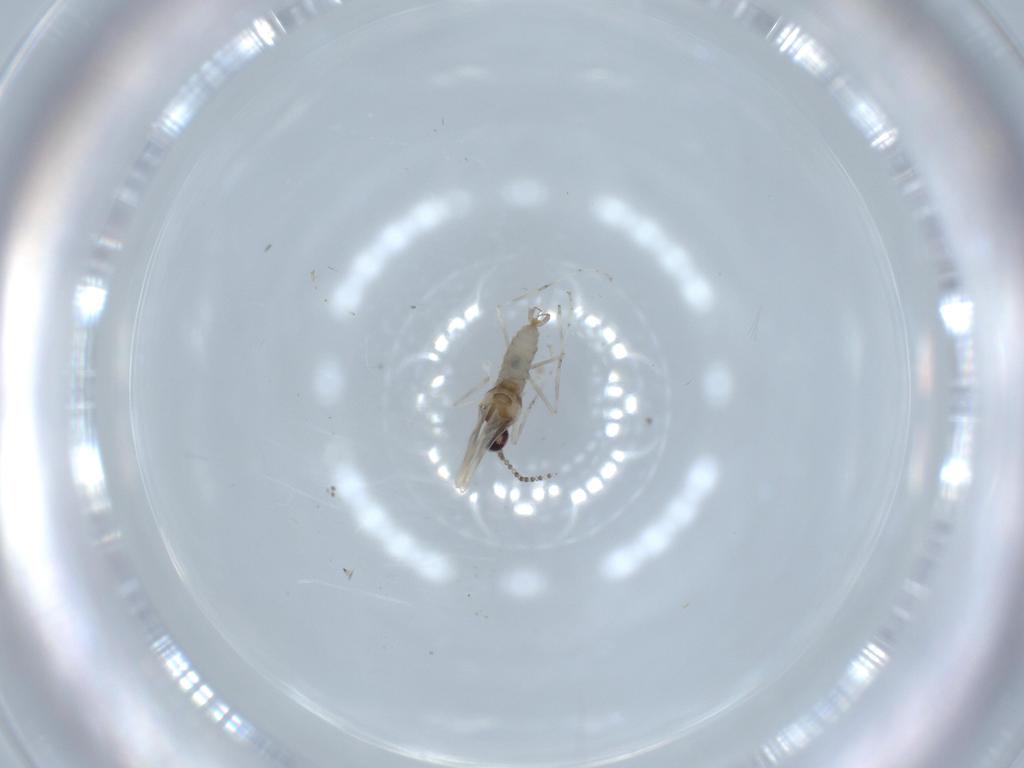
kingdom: Animalia
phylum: Arthropoda
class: Insecta
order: Diptera
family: Cecidomyiidae
